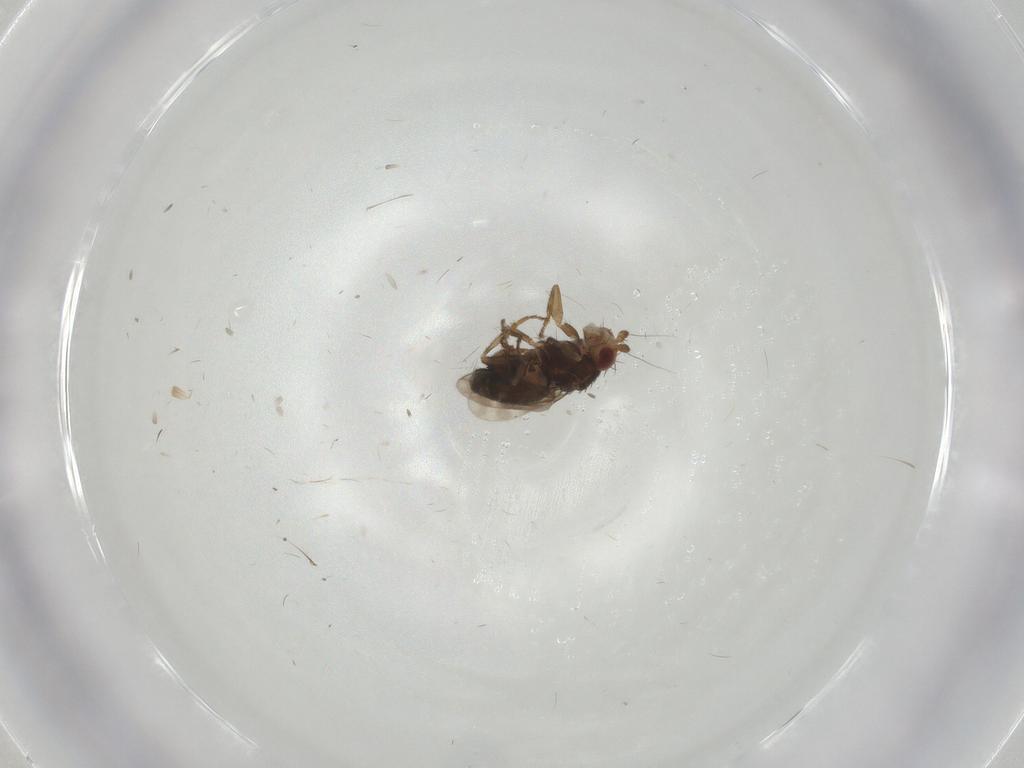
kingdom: Animalia
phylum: Arthropoda
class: Insecta
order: Diptera
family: Sphaeroceridae
